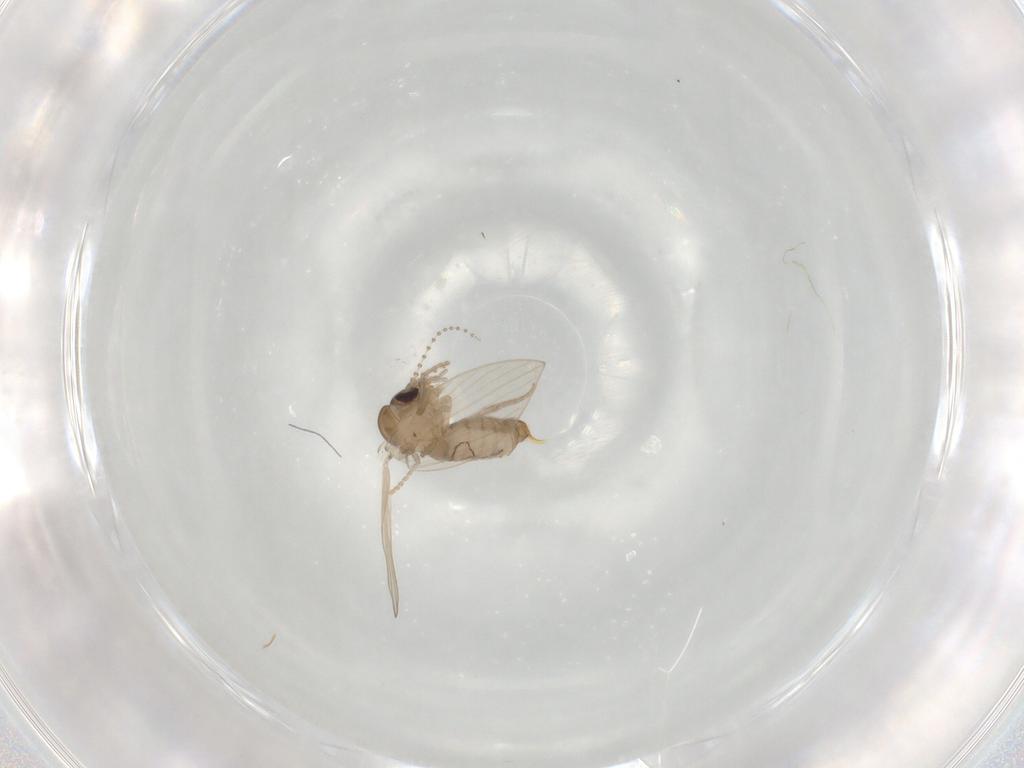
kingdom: Animalia
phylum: Arthropoda
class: Insecta
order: Diptera
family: Psychodidae
